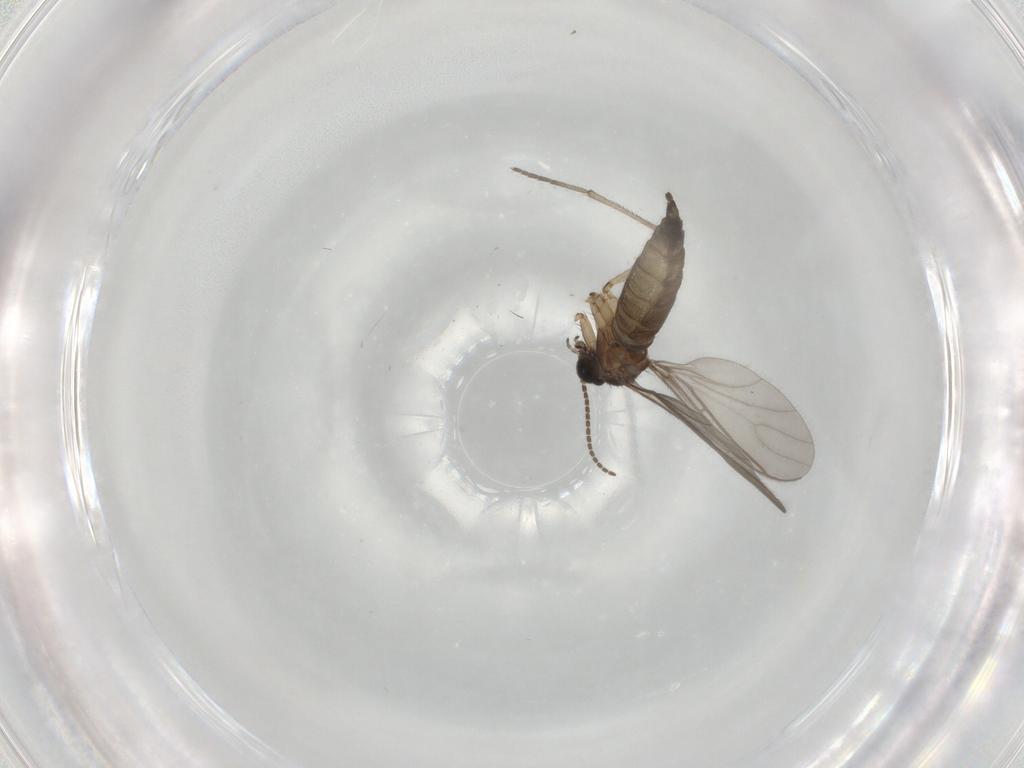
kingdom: Animalia
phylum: Arthropoda
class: Insecta
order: Diptera
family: Sciaridae
